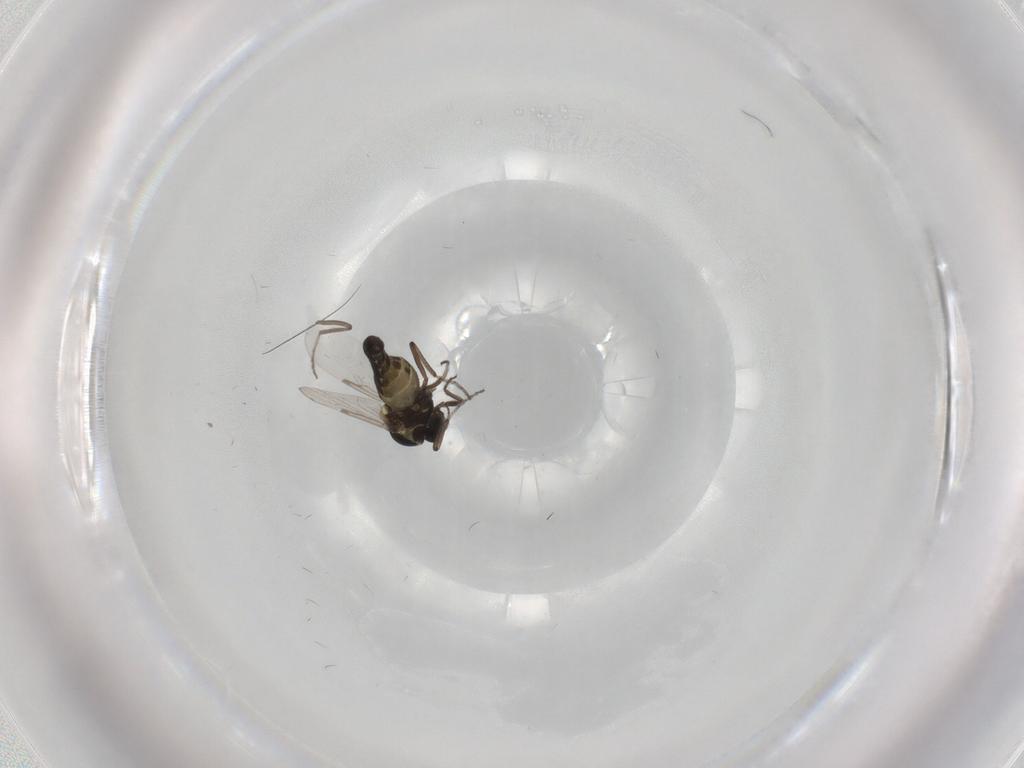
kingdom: Animalia
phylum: Arthropoda
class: Insecta
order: Diptera
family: Ceratopogonidae
